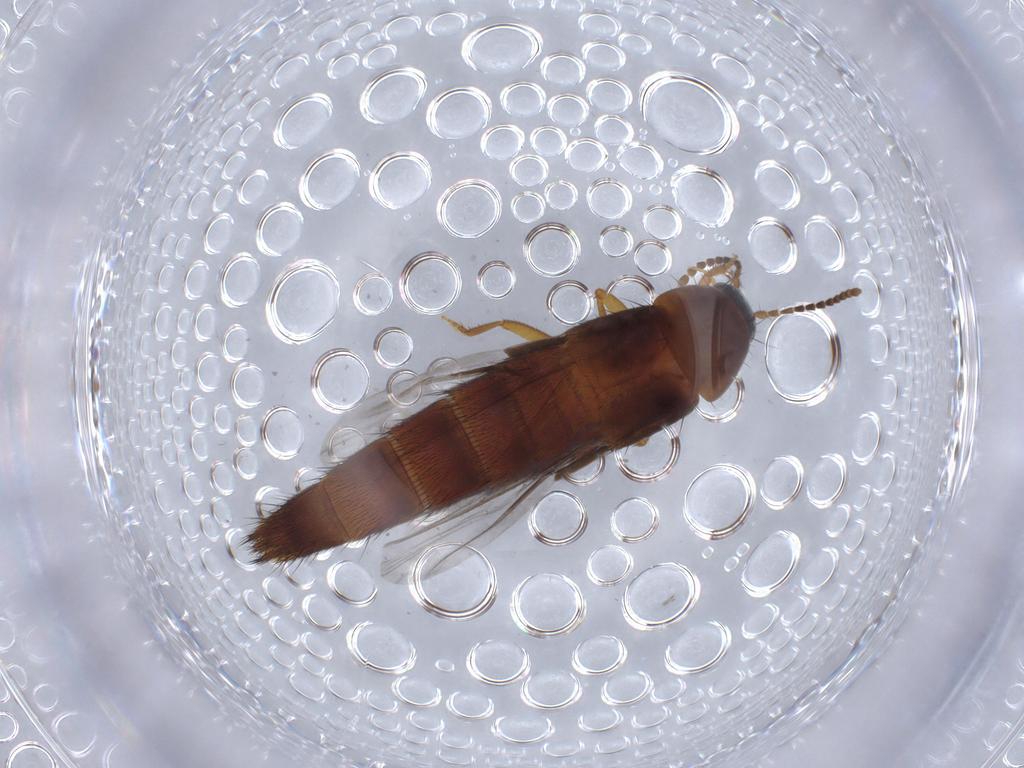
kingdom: Animalia
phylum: Arthropoda
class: Insecta
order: Coleoptera
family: Staphylinidae
